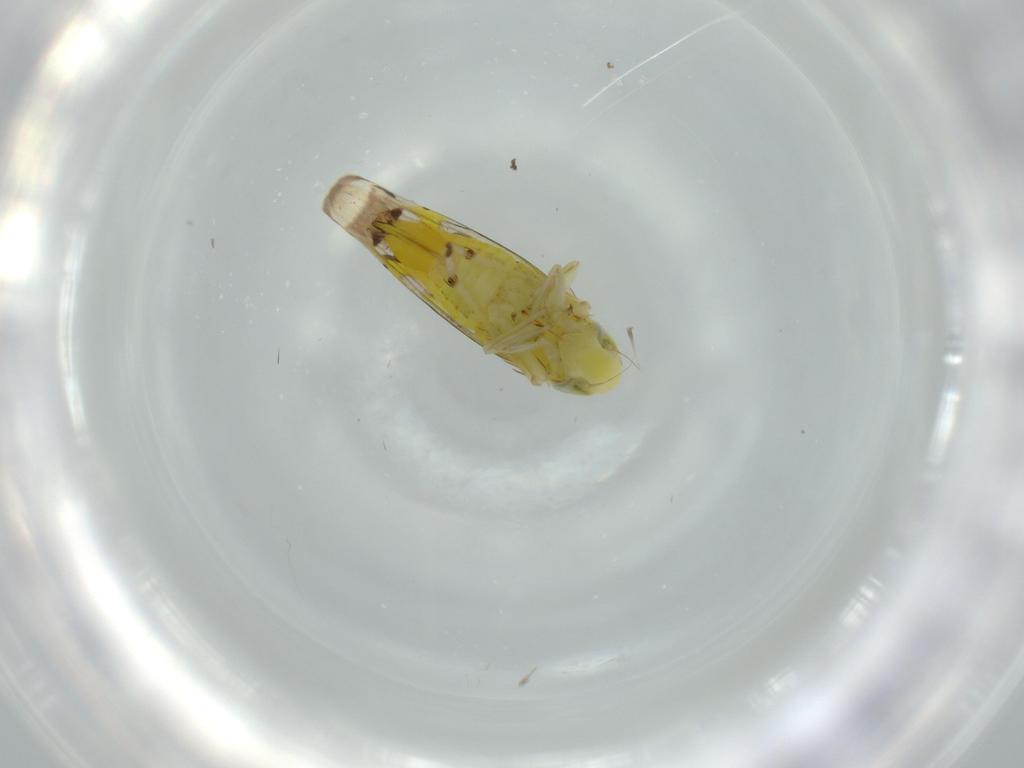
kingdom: Animalia
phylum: Arthropoda
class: Insecta
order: Hemiptera
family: Cicadellidae
